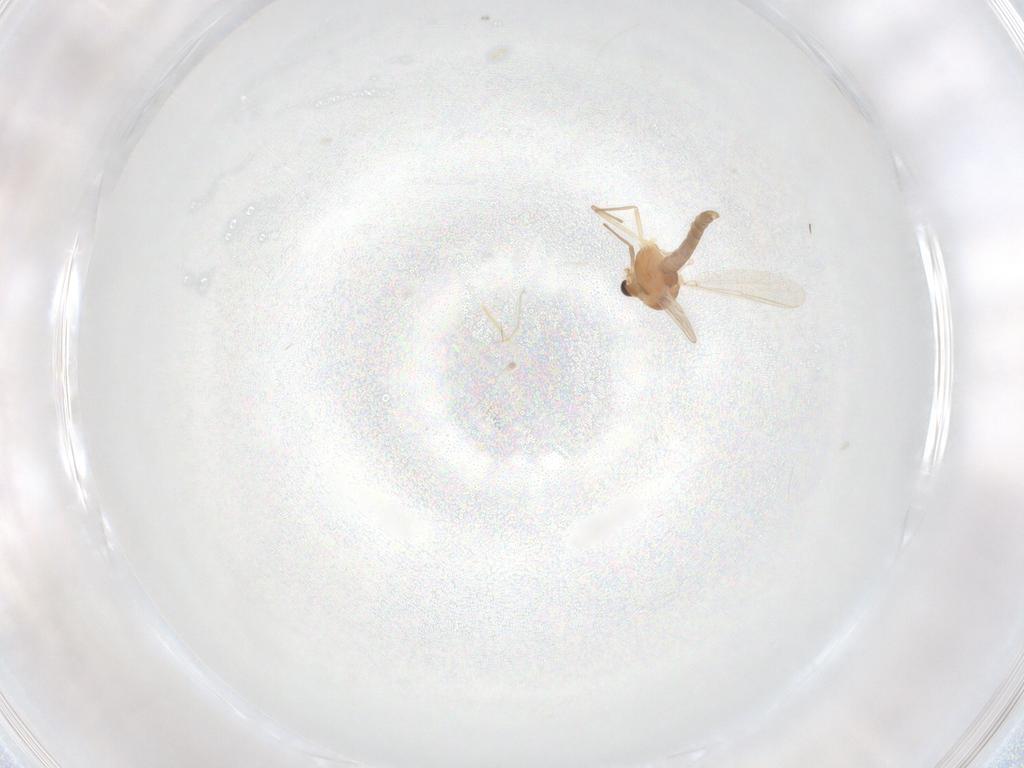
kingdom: Animalia
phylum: Arthropoda
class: Insecta
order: Diptera
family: Chironomidae
